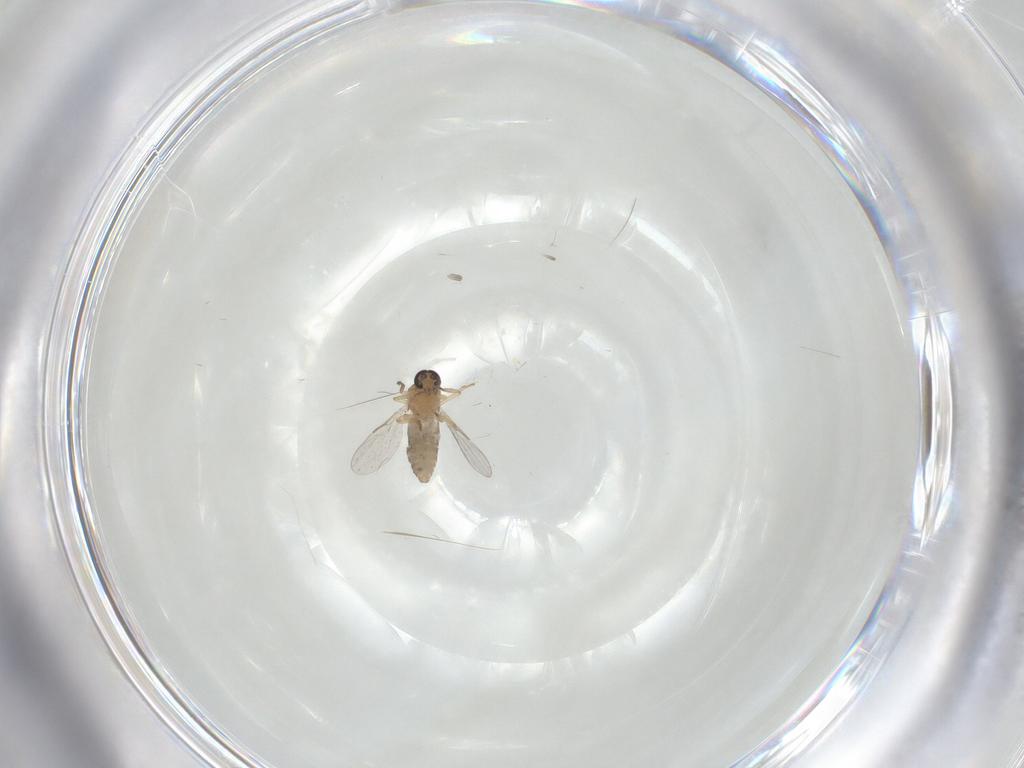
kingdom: Animalia
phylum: Arthropoda
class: Insecta
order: Diptera
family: Ceratopogonidae
